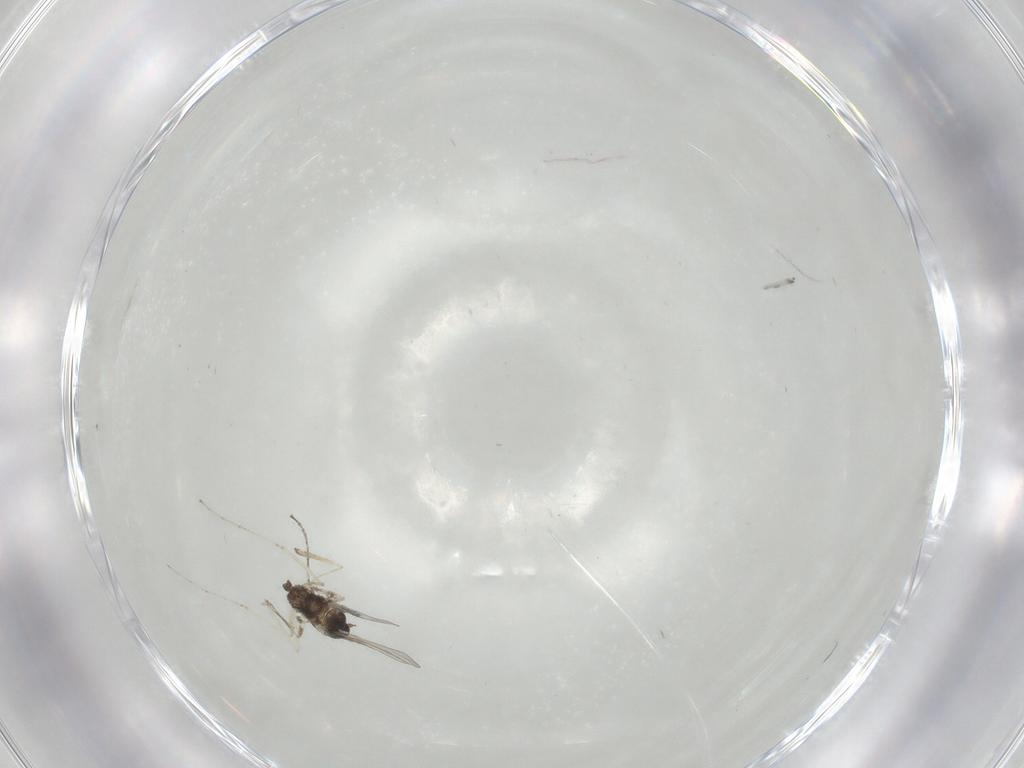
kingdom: Animalia
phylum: Arthropoda
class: Insecta
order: Diptera
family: Cecidomyiidae
